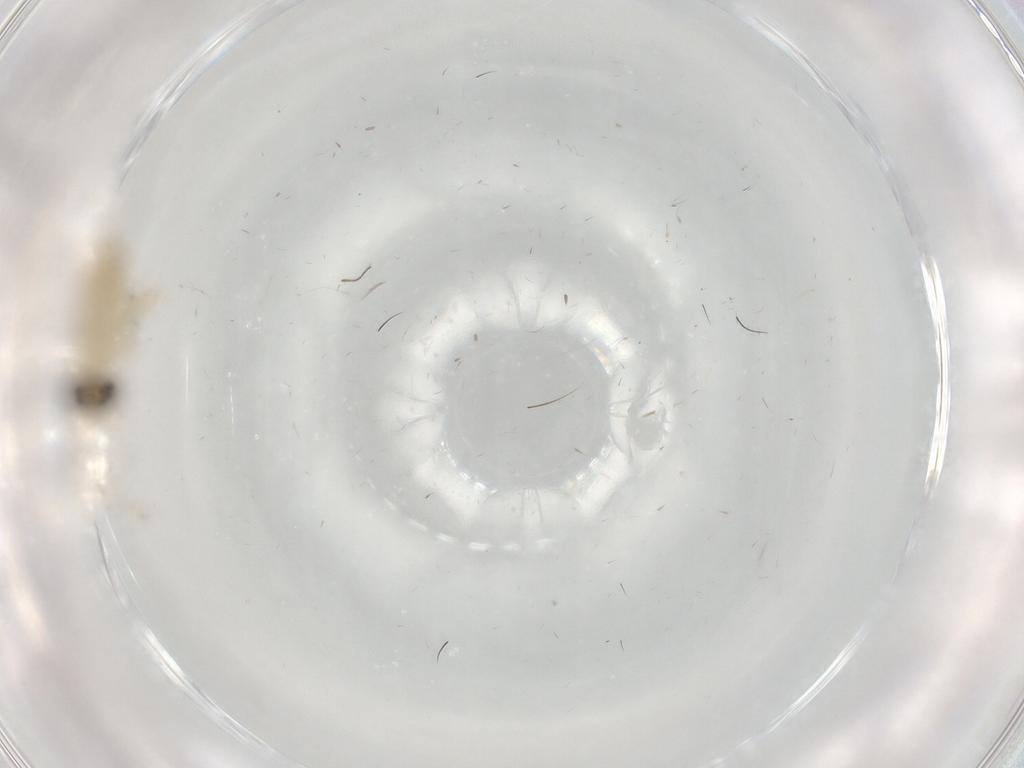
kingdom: Animalia
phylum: Arthropoda
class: Insecta
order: Diptera
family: Chironomidae
